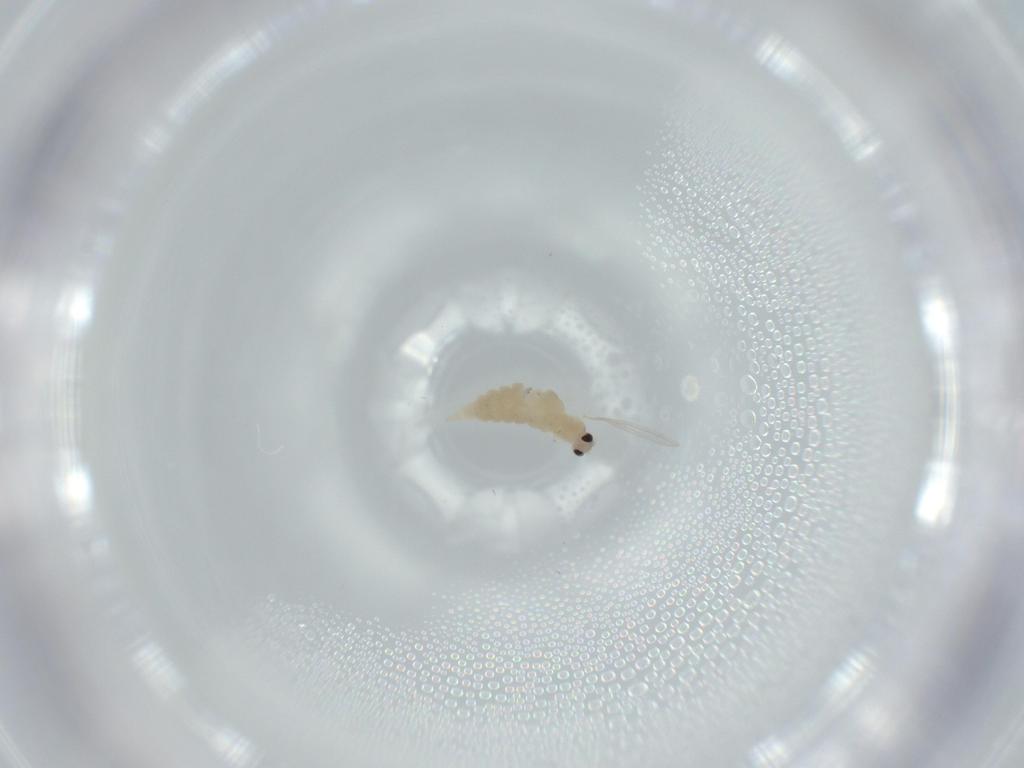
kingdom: Animalia
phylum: Arthropoda
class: Insecta
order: Diptera
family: Cecidomyiidae
